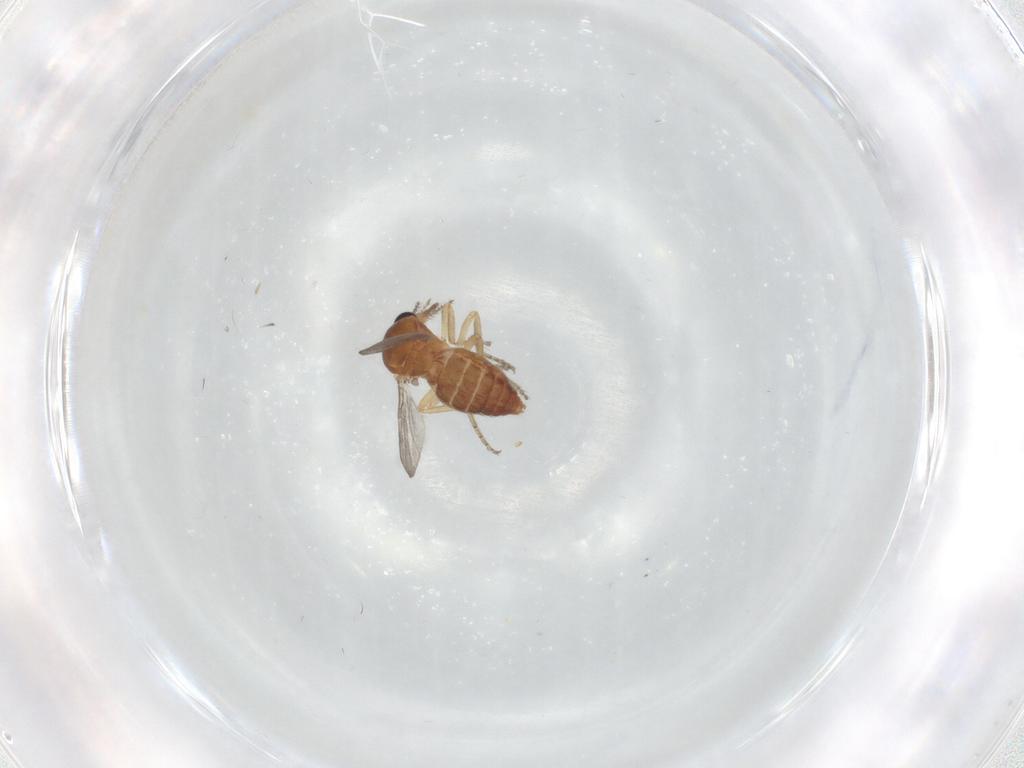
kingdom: Animalia
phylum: Arthropoda
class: Insecta
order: Diptera
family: Ceratopogonidae
